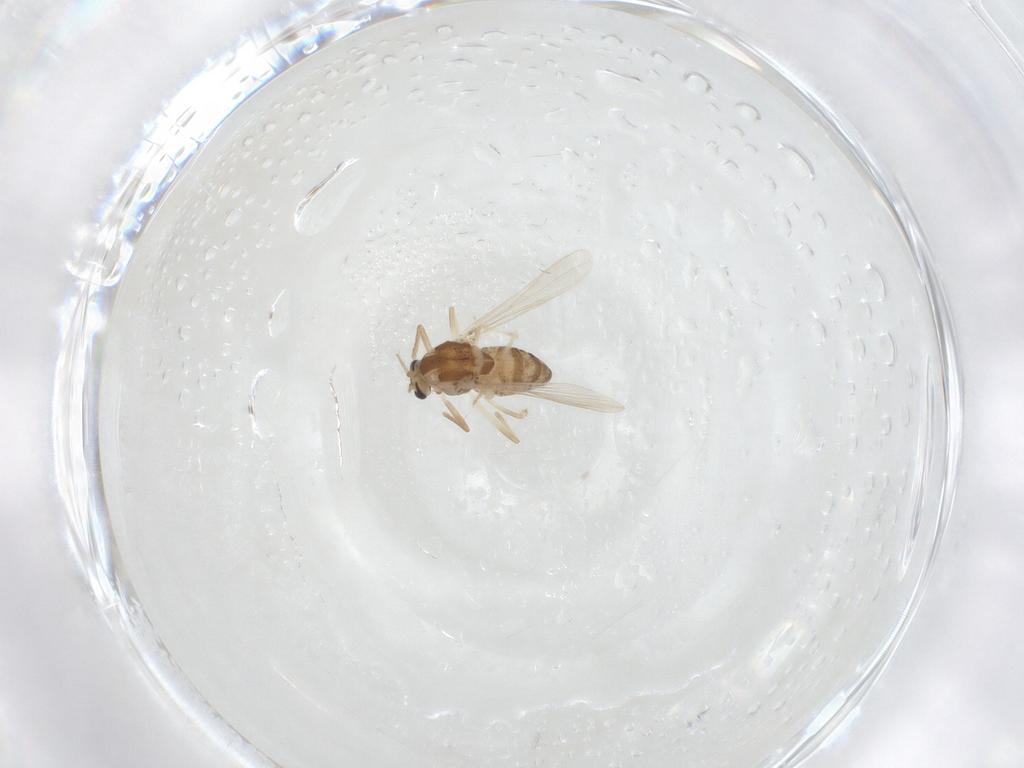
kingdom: Animalia
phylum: Arthropoda
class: Insecta
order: Diptera
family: Chironomidae
